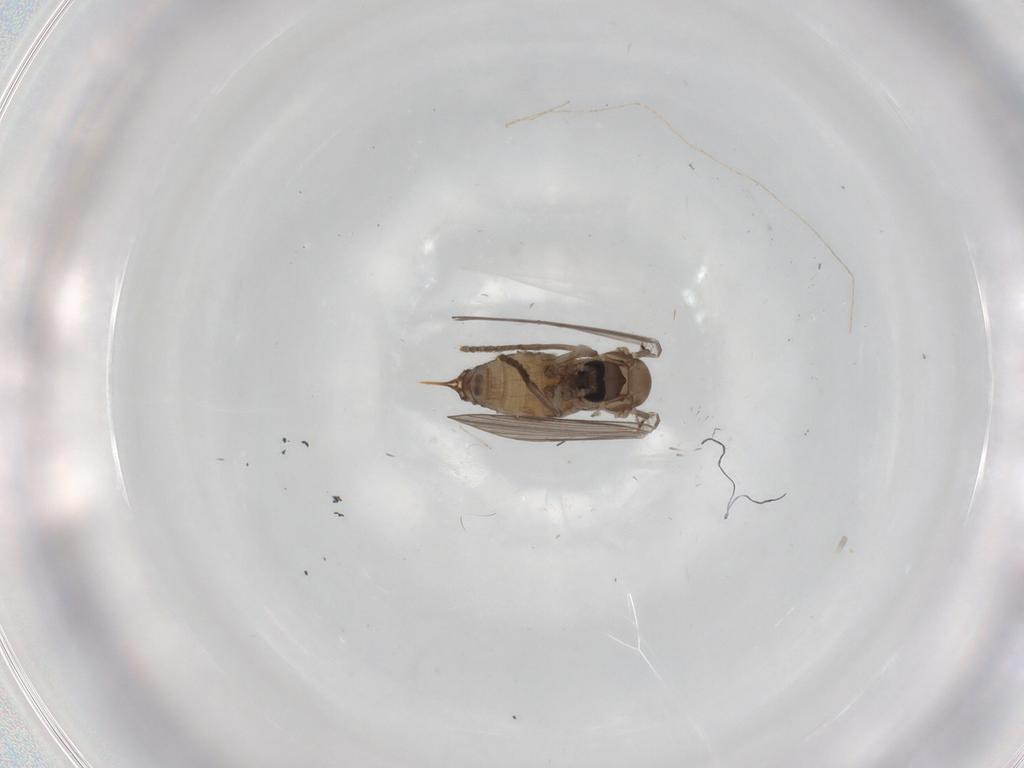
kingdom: Animalia
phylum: Arthropoda
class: Insecta
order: Diptera
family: Psychodidae
